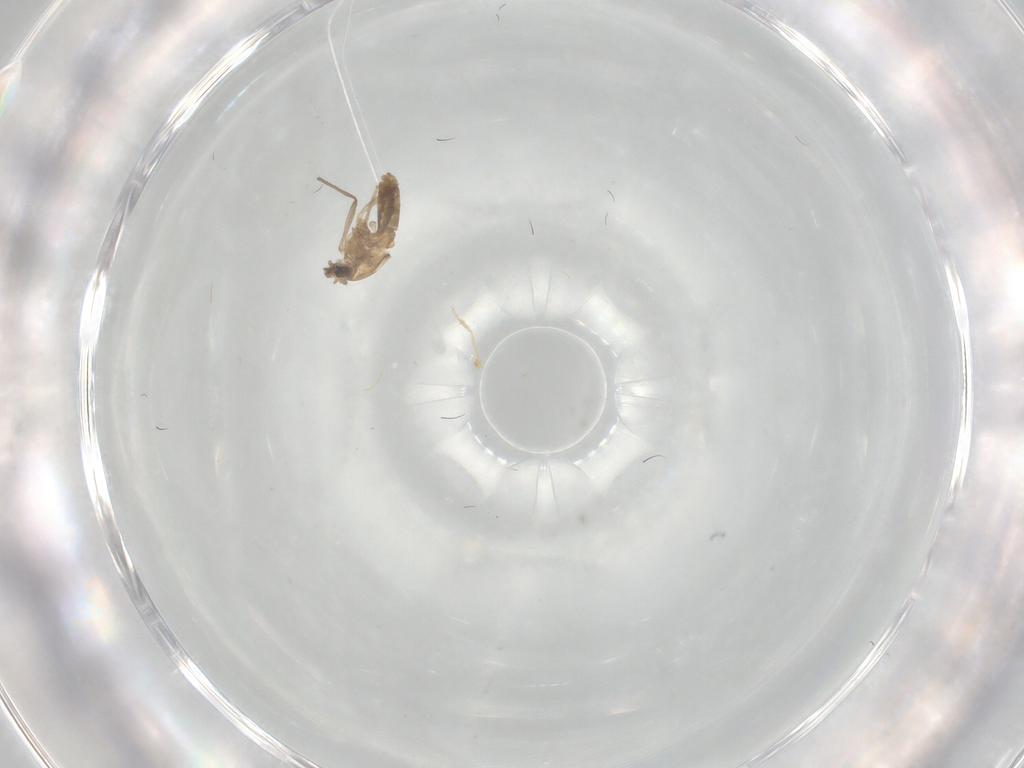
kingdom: Animalia
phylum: Arthropoda
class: Insecta
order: Diptera
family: Chironomidae
